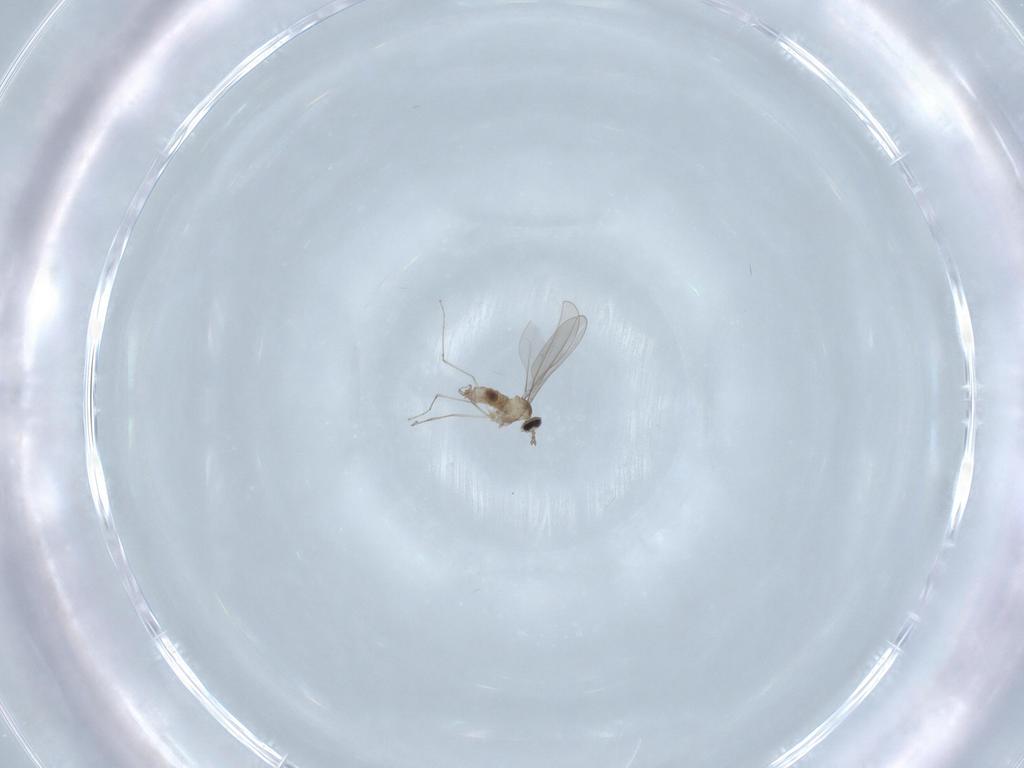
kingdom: Animalia
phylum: Arthropoda
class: Insecta
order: Diptera
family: Cecidomyiidae
